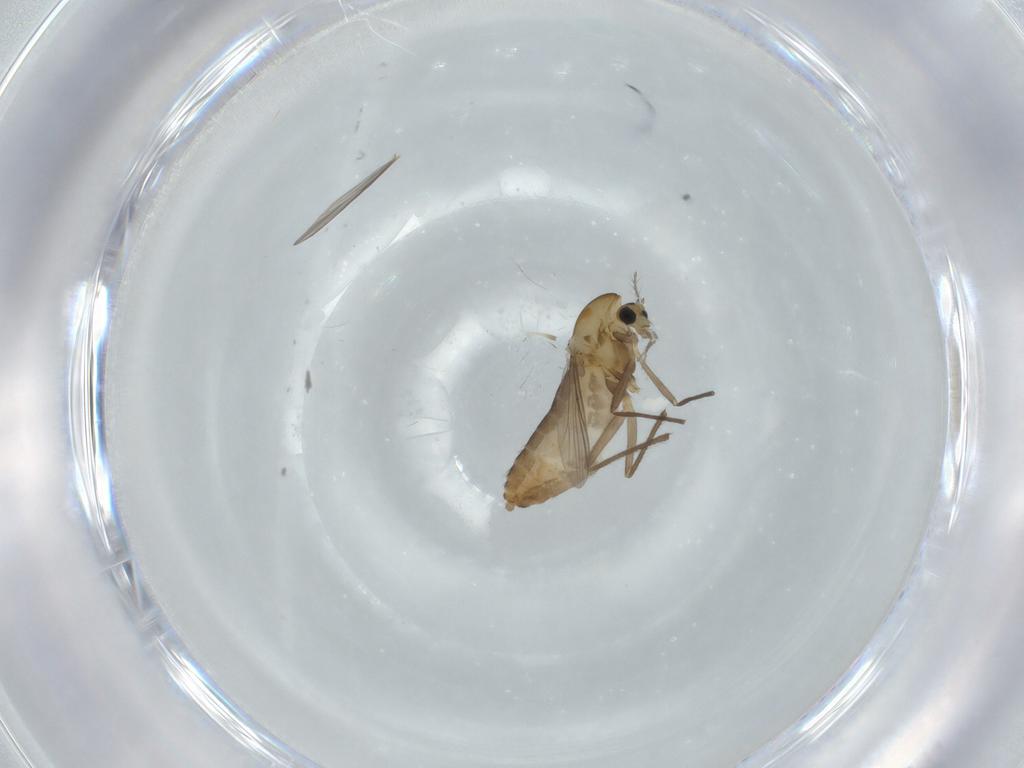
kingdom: Animalia
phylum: Arthropoda
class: Insecta
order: Diptera
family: Chironomidae
